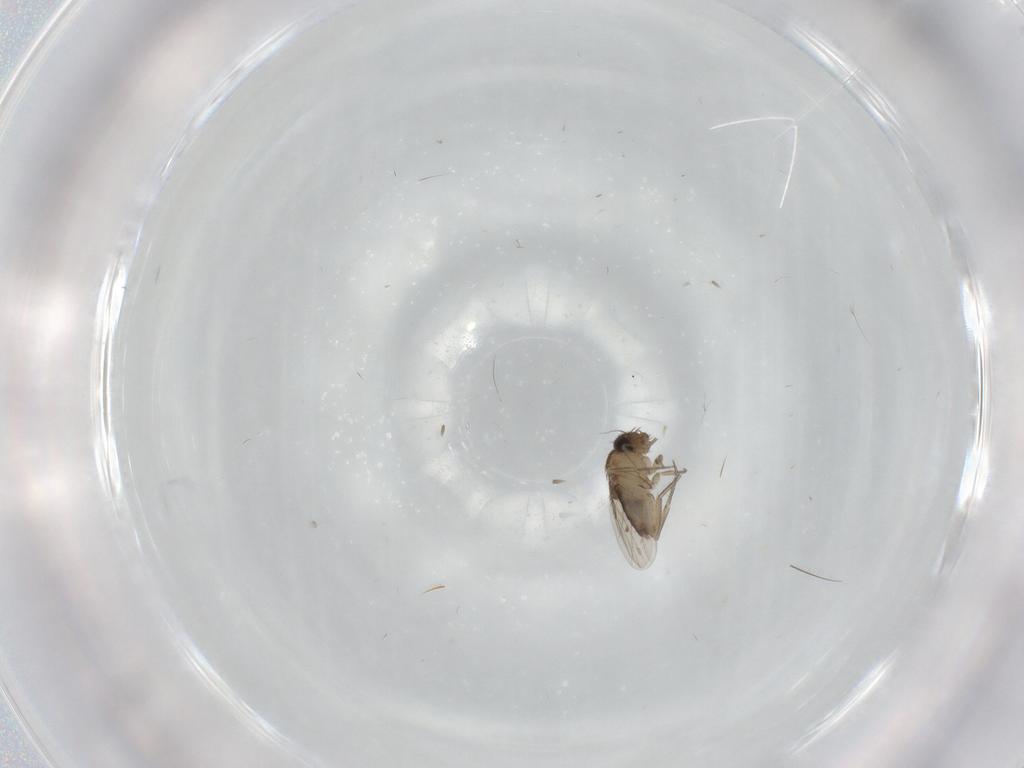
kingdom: Animalia
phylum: Arthropoda
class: Insecta
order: Diptera
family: Phoridae
